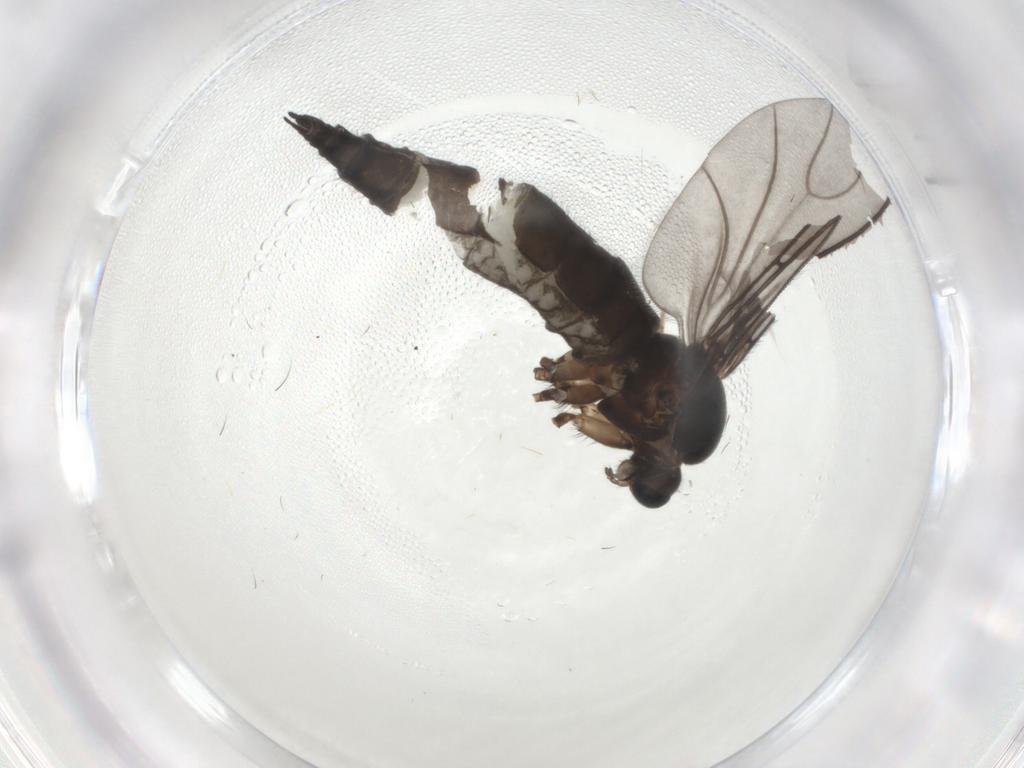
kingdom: Animalia
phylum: Arthropoda
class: Insecta
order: Diptera
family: Sciaridae
